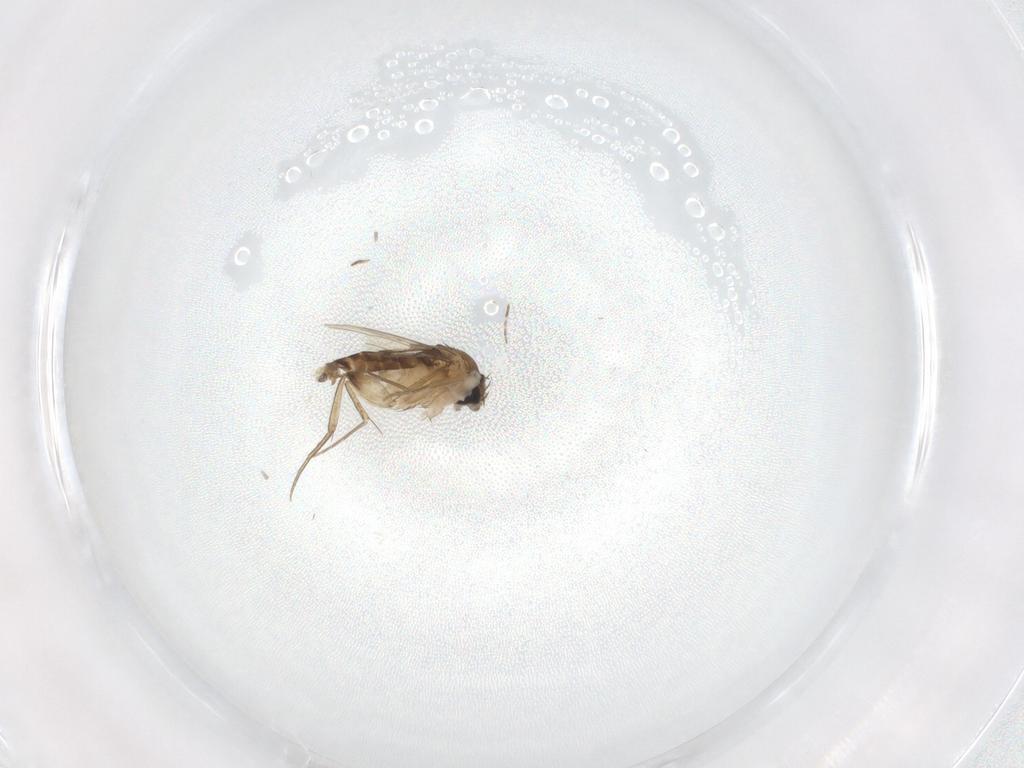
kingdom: Animalia
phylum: Arthropoda
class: Insecta
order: Diptera
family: Phoridae
